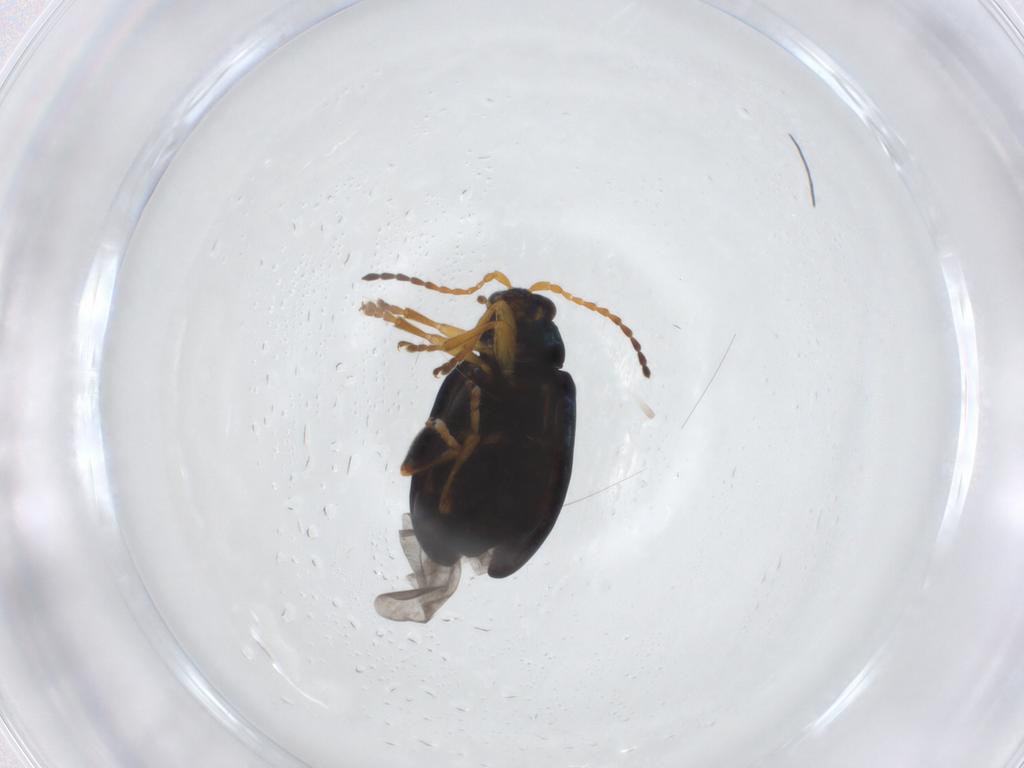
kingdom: Animalia
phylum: Arthropoda
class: Insecta
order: Coleoptera
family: Chrysomelidae
